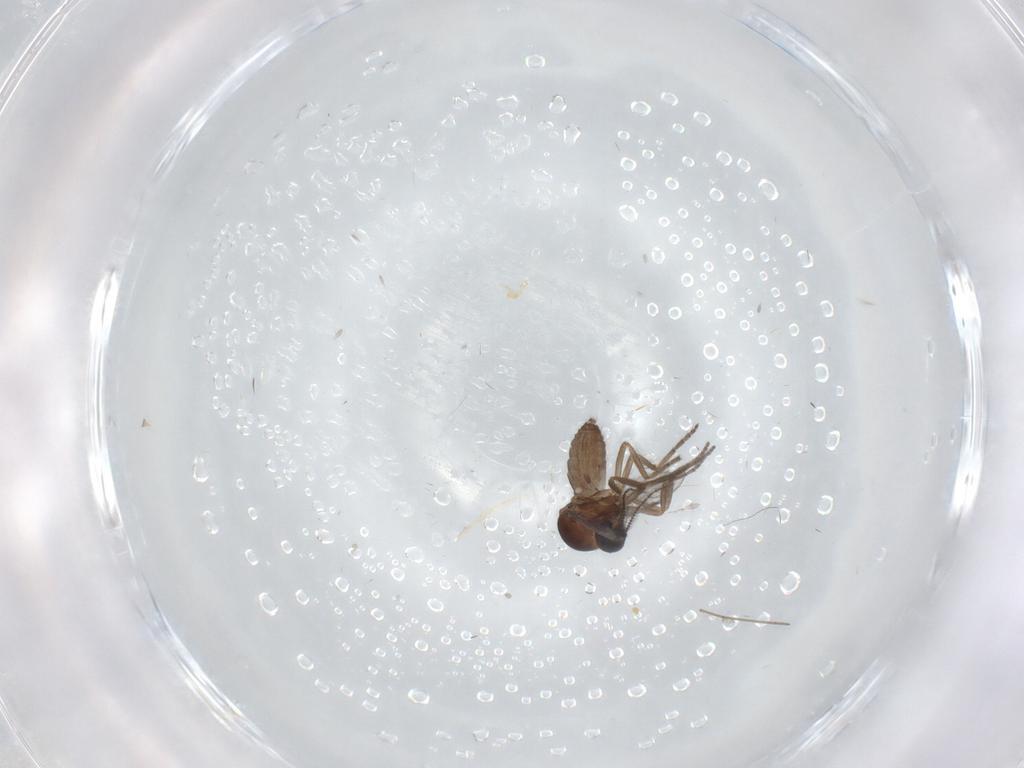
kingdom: Animalia
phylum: Arthropoda
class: Insecta
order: Diptera
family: Ceratopogonidae
